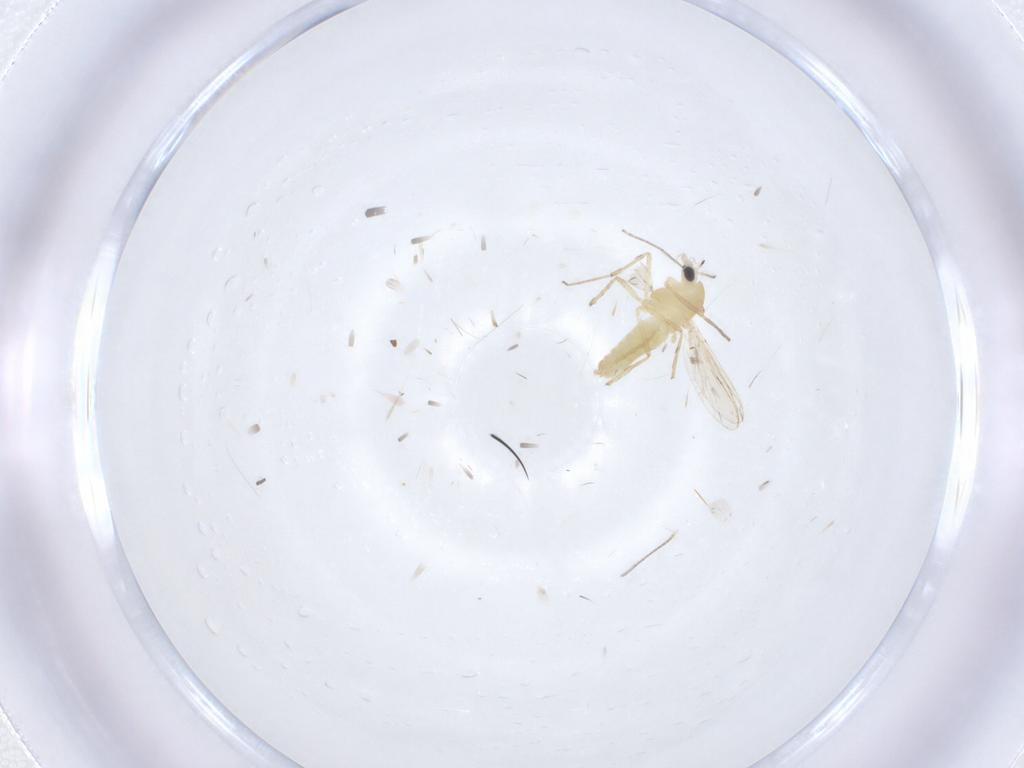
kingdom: Animalia
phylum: Arthropoda
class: Insecta
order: Diptera
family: Chironomidae
